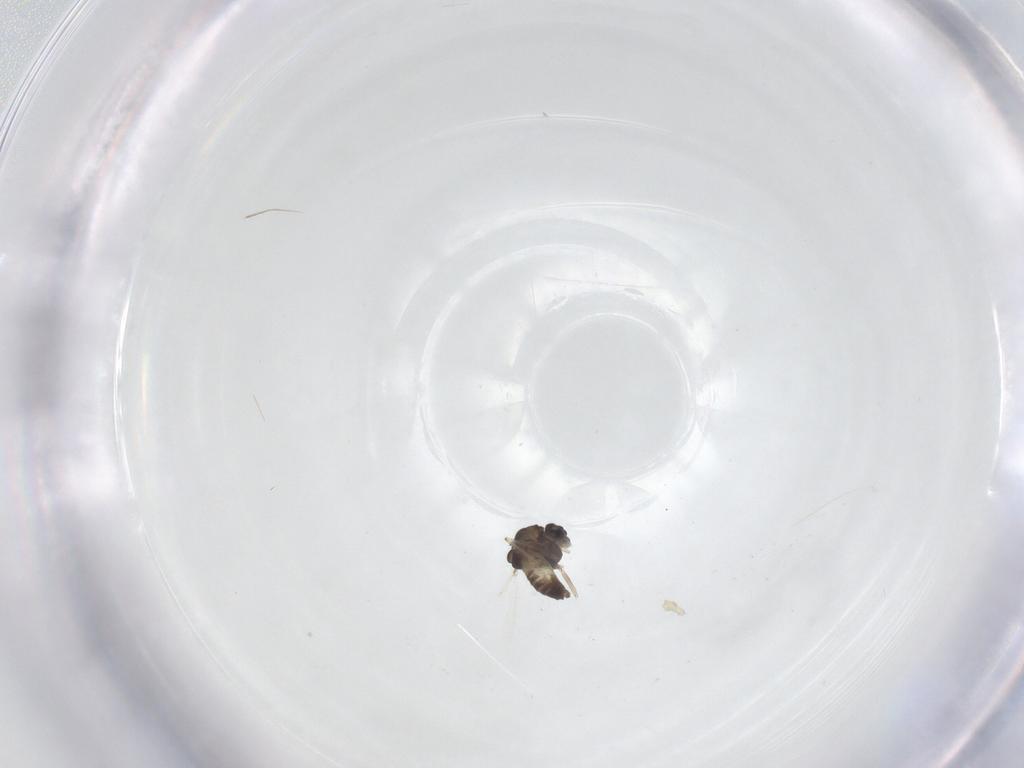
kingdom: Animalia
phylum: Arthropoda
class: Insecta
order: Diptera
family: Chironomidae
